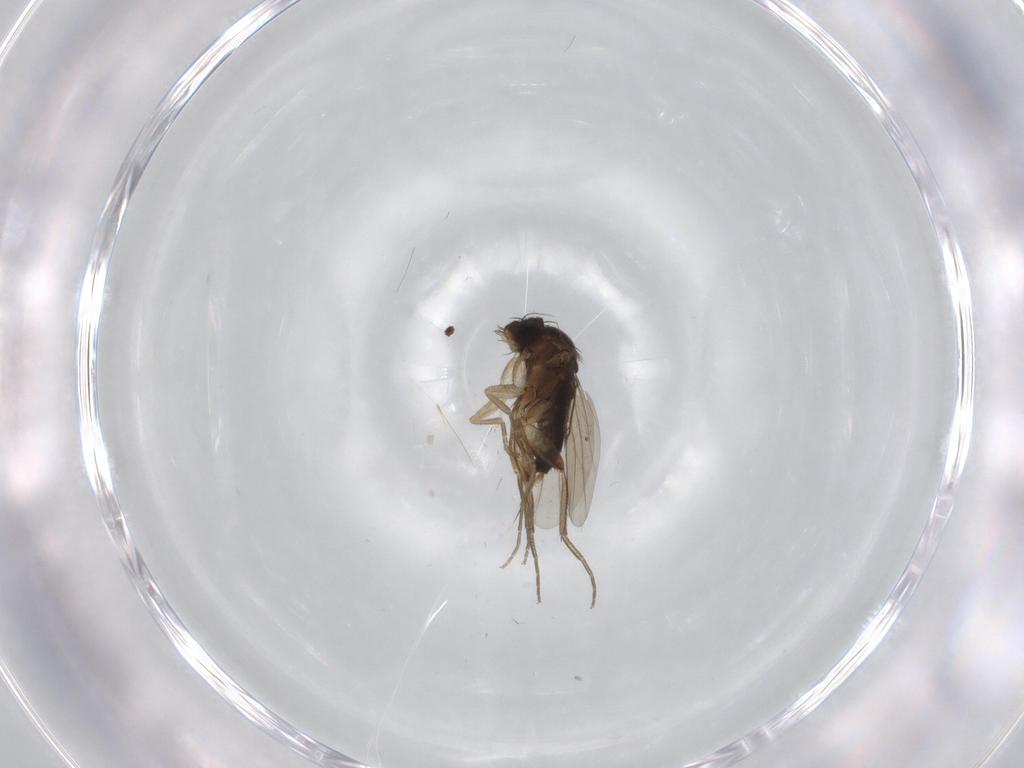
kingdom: Animalia
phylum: Arthropoda
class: Insecta
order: Diptera
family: Phoridae
